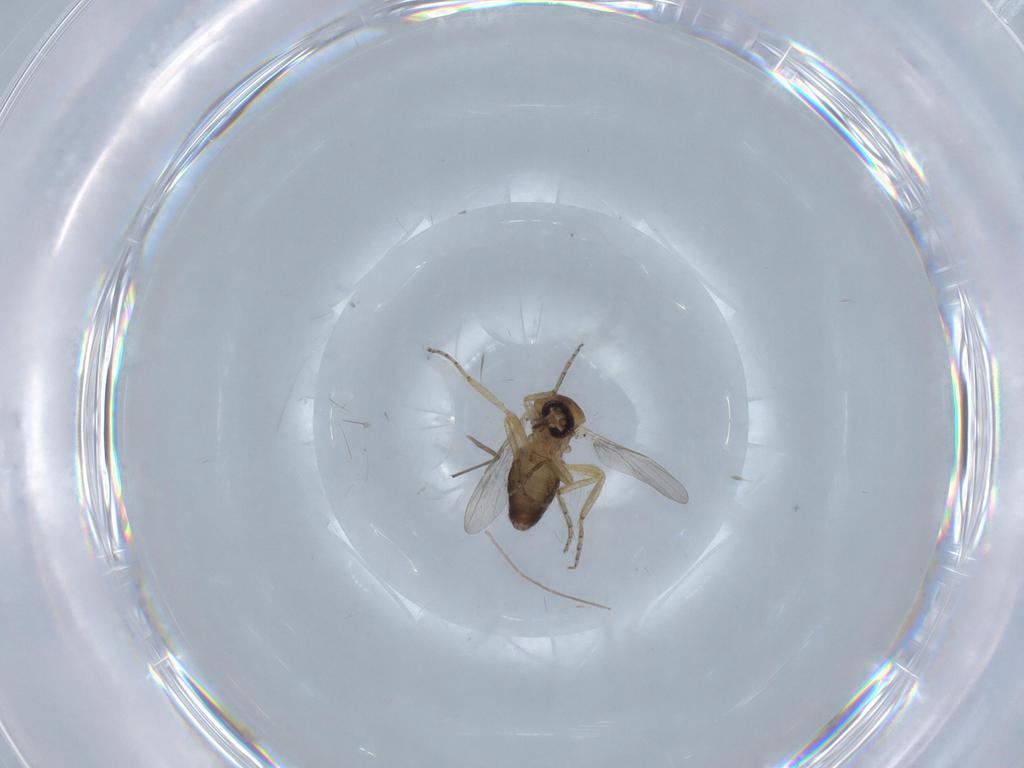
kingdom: Animalia
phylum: Arthropoda
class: Insecta
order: Diptera
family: Ceratopogonidae
